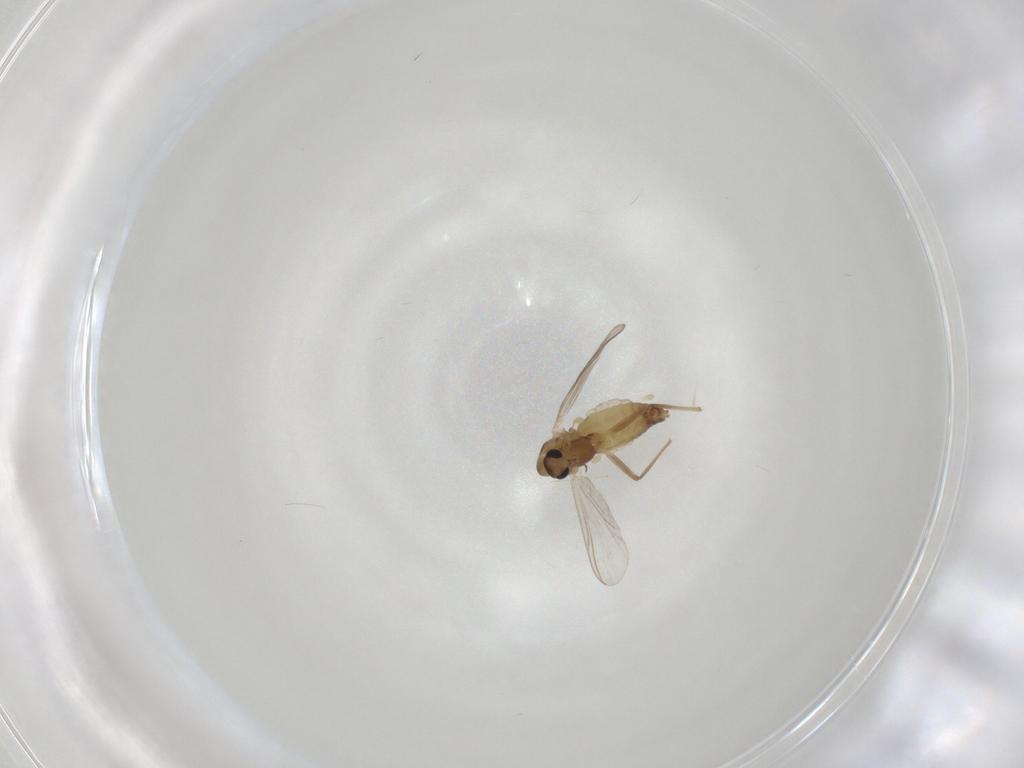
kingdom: Animalia
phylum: Arthropoda
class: Insecta
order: Diptera
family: Chironomidae
